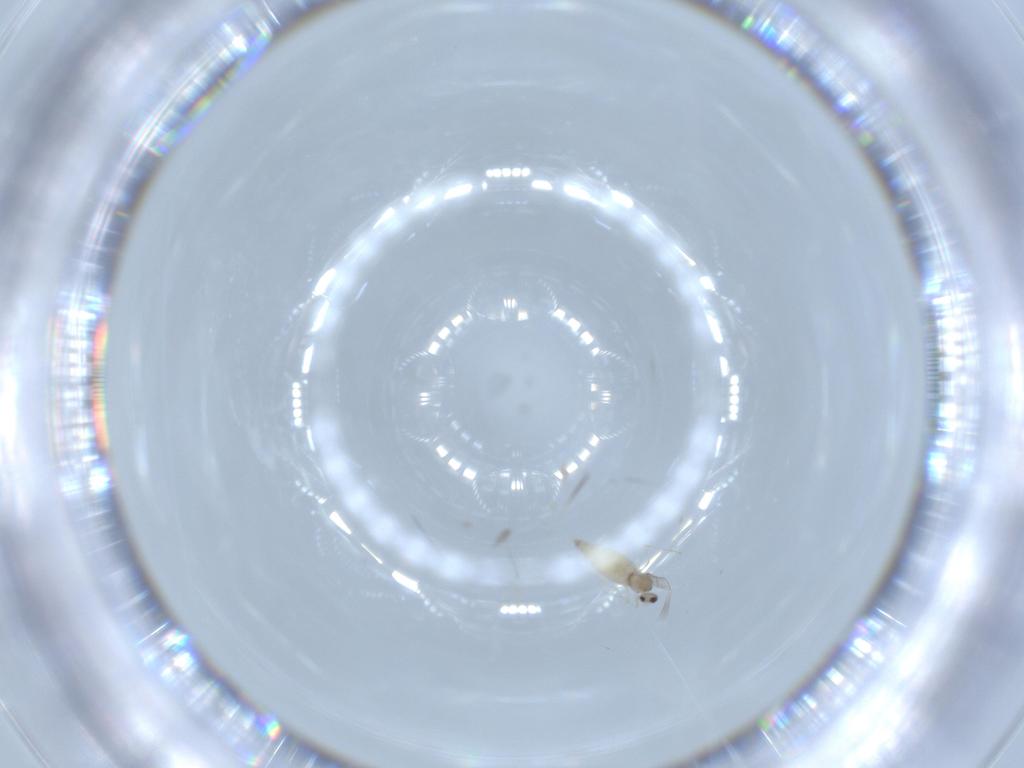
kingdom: Animalia
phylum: Arthropoda
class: Insecta
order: Diptera
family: Cecidomyiidae
